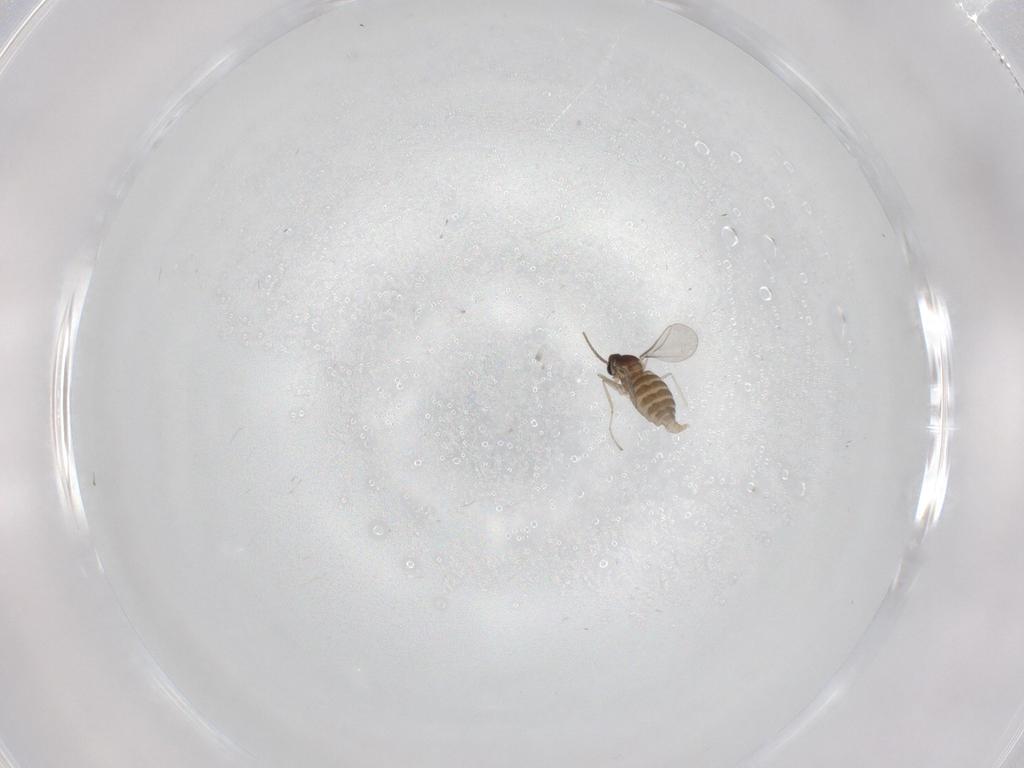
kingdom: Animalia
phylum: Arthropoda
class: Insecta
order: Diptera
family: Cecidomyiidae
